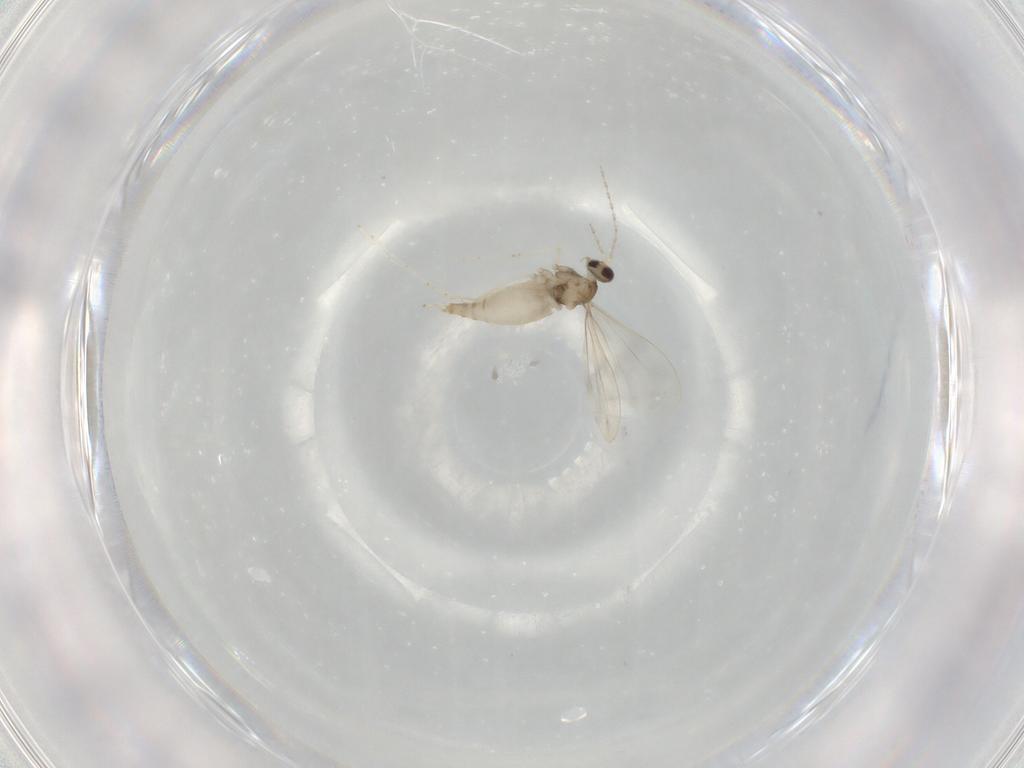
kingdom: Animalia
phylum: Arthropoda
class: Insecta
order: Diptera
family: Cecidomyiidae
